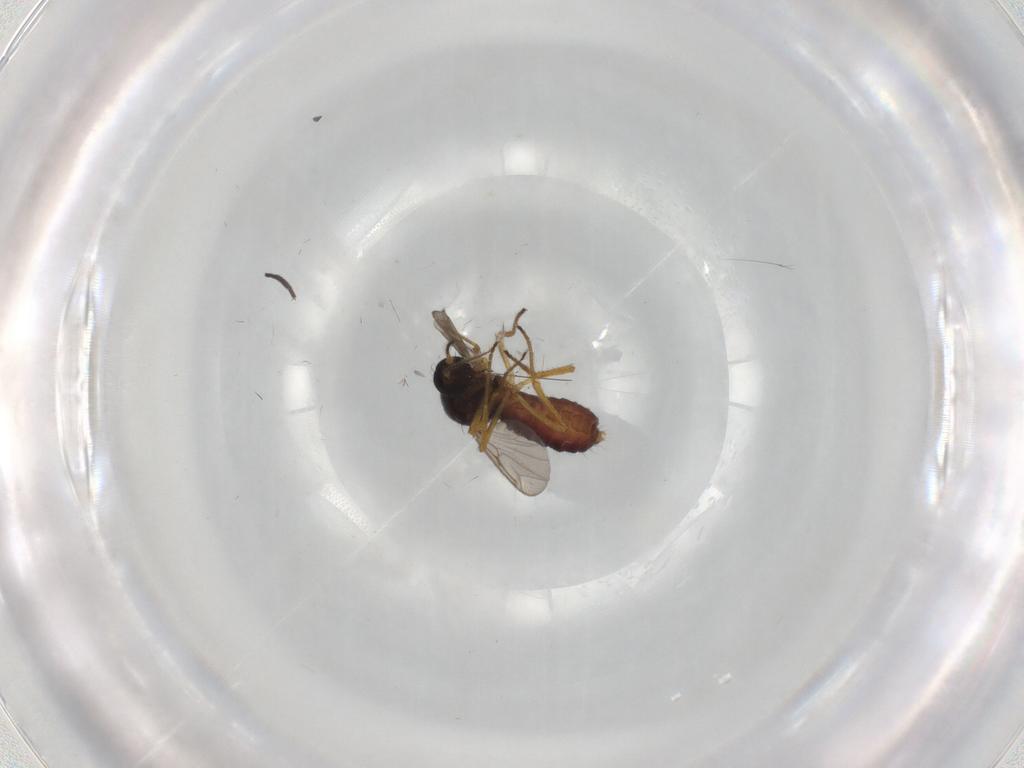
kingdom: Animalia
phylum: Arthropoda
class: Insecta
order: Diptera
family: Ceratopogonidae
